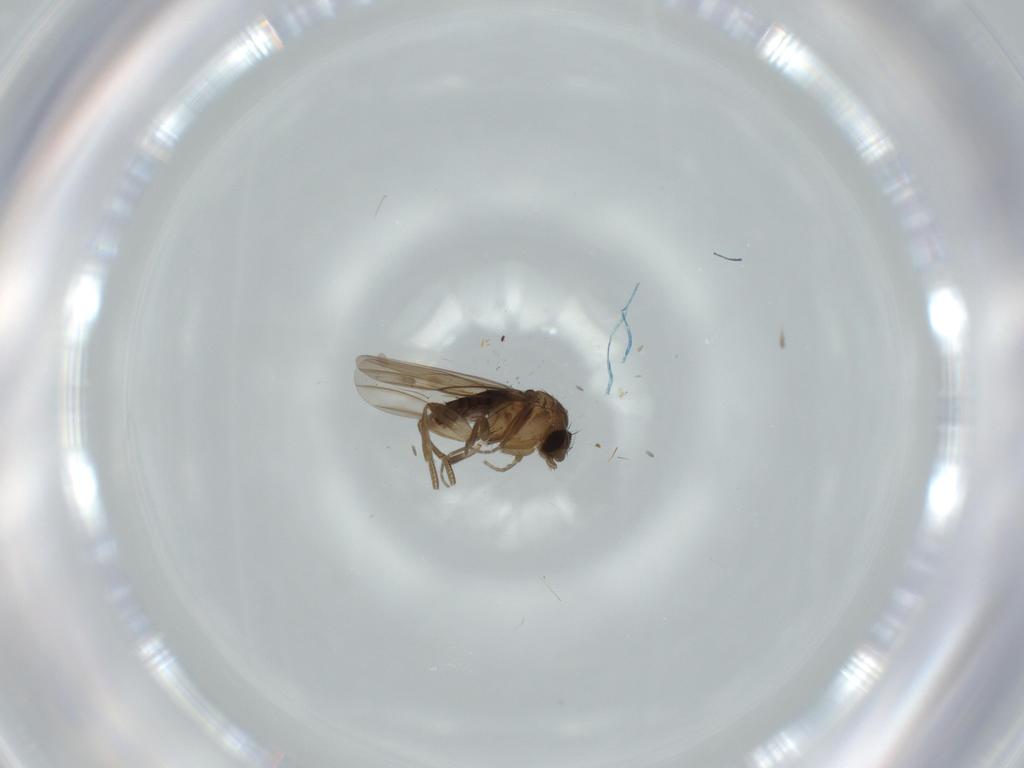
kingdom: Animalia
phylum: Arthropoda
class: Insecta
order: Diptera
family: Phoridae
